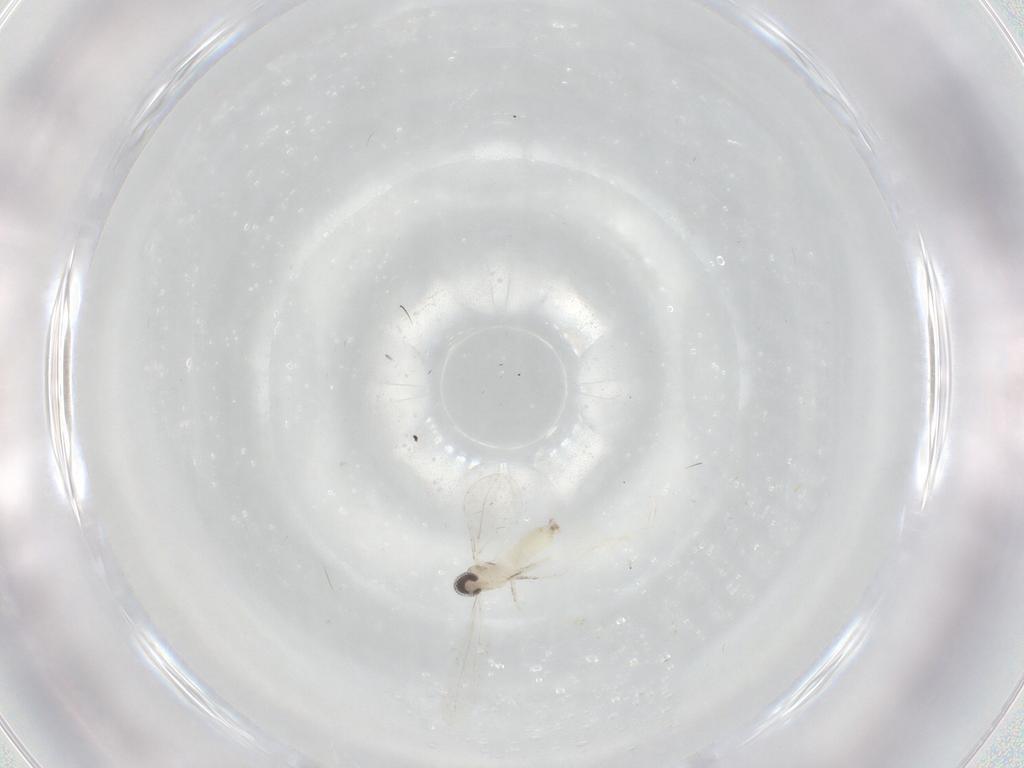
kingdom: Animalia
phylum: Arthropoda
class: Insecta
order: Diptera
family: Cecidomyiidae
